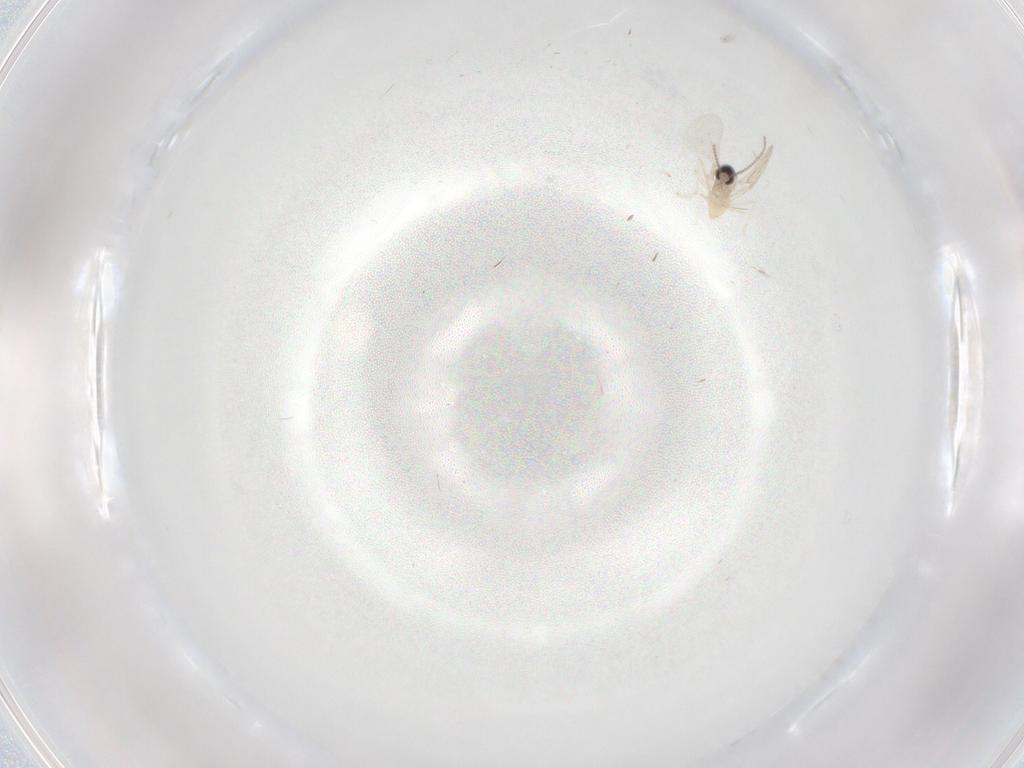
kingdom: Animalia
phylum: Arthropoda
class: Insecta
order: Diptera
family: Cecidomyiidae
